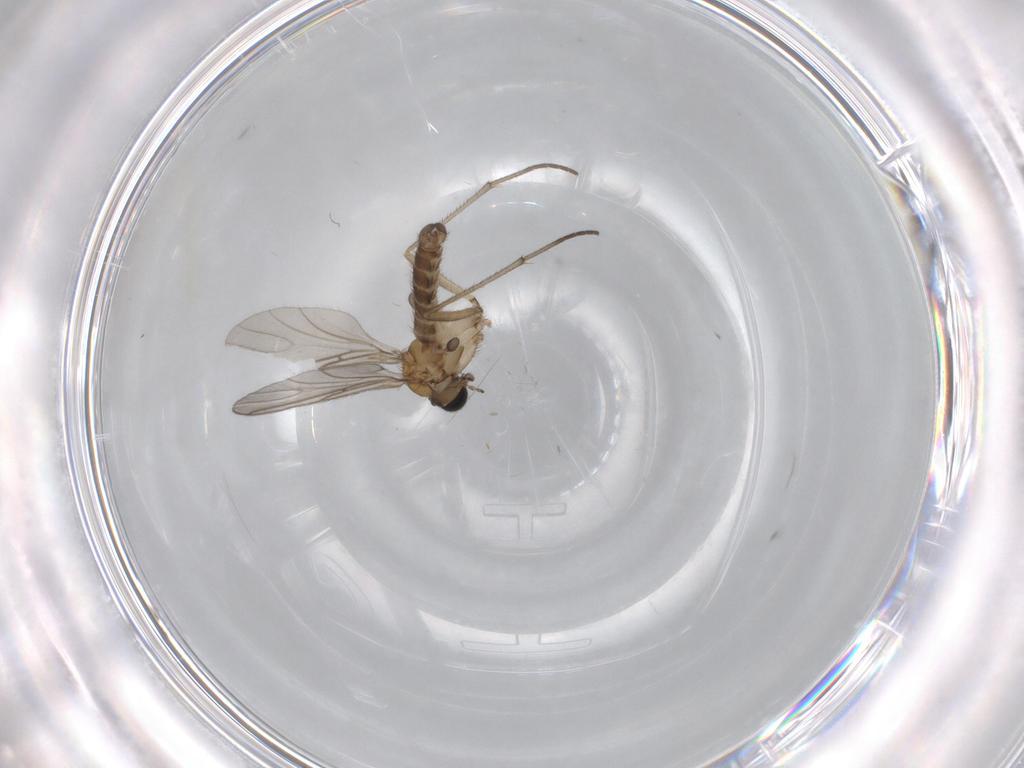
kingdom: Animalia
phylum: Arthropoda
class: Insecta
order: Diptera
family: Sciaridae
